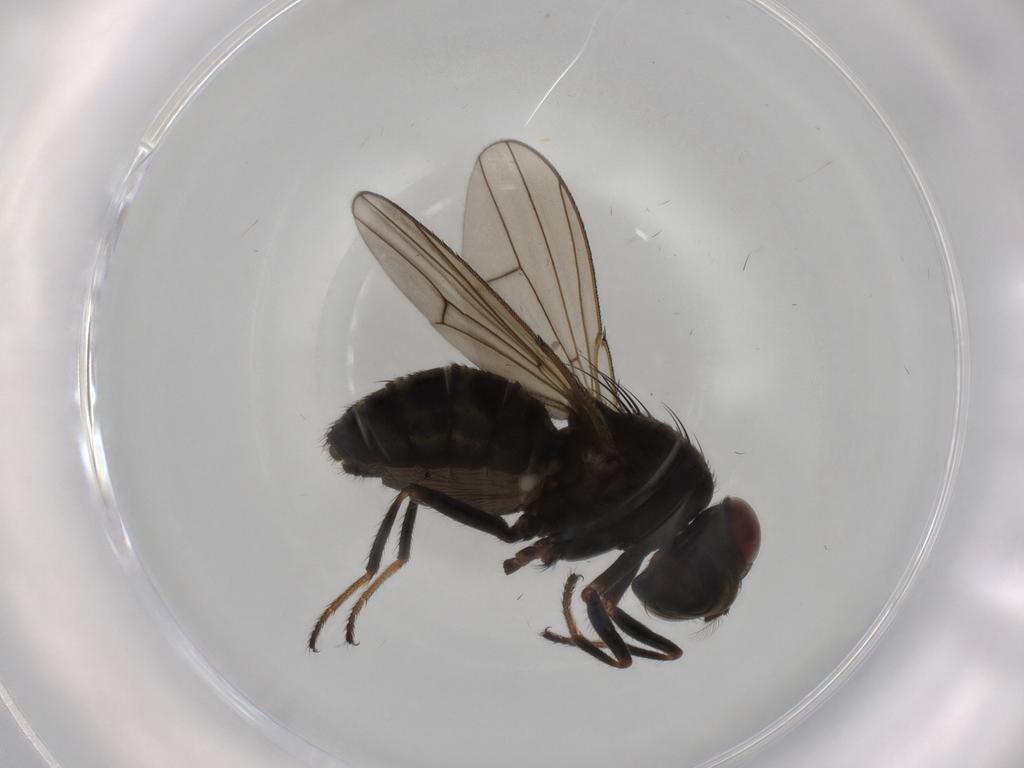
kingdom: Animalia
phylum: Arthropoda
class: Insecta
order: Diptera
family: Ephydridae
